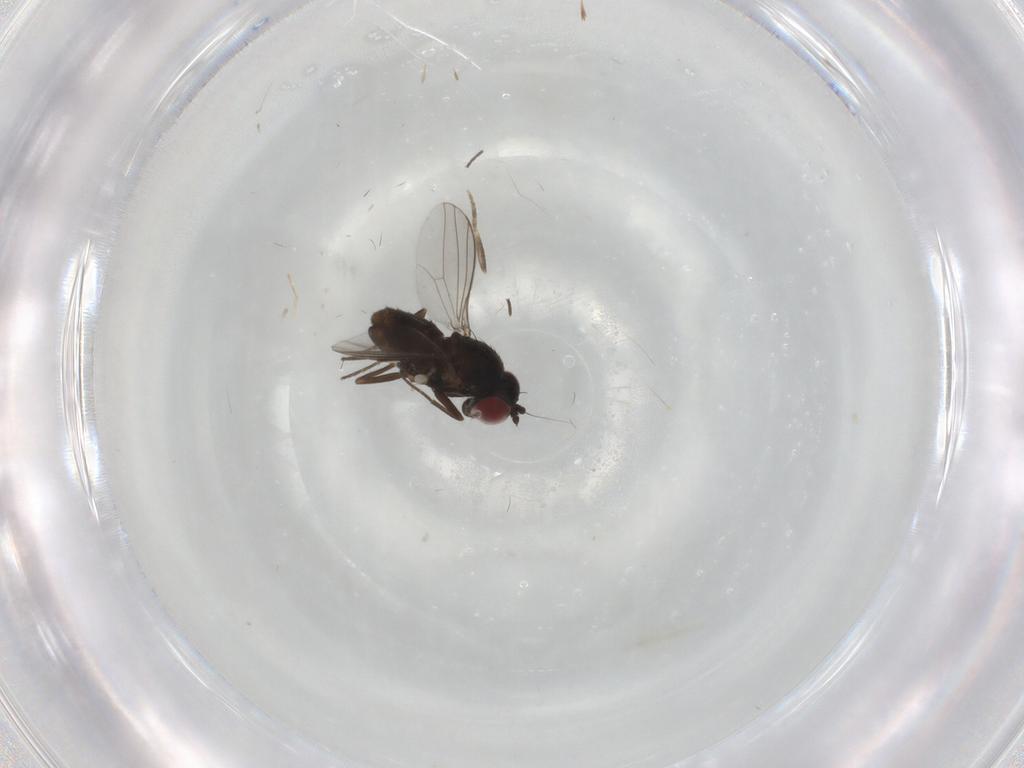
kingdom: Animalia
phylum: Arthropoda
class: Insecta
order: Diptera
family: Dolichopodidae
